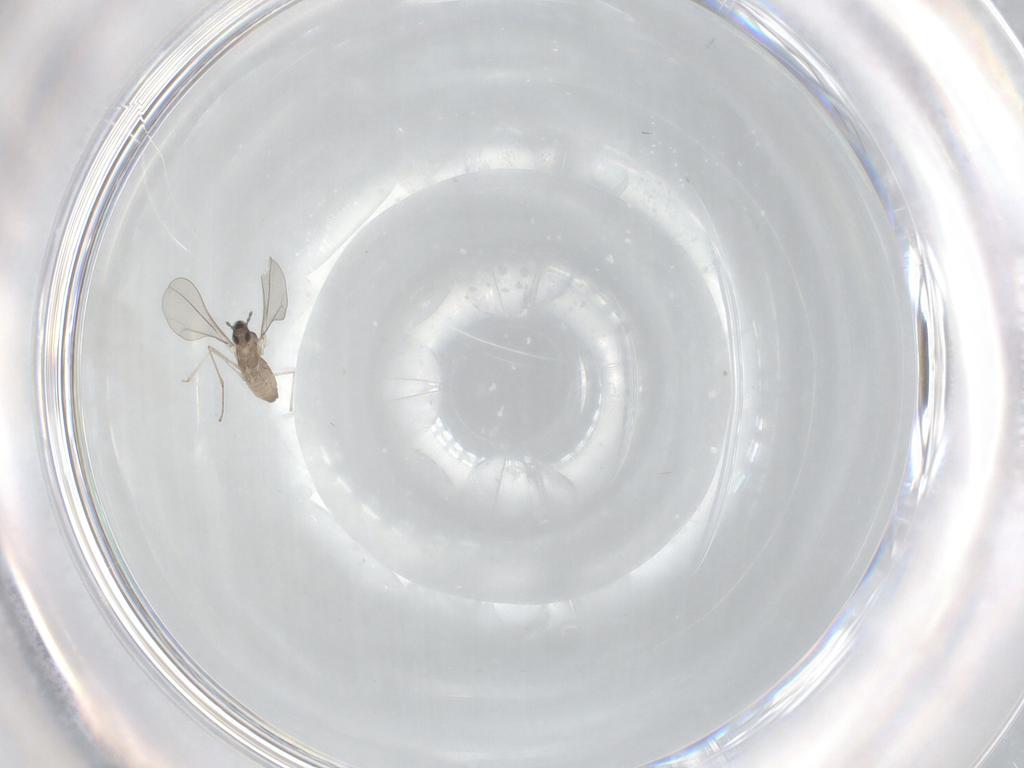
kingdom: Animalia
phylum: Arthropoda
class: Insecta
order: Diptera
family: Cecidomyiidae
